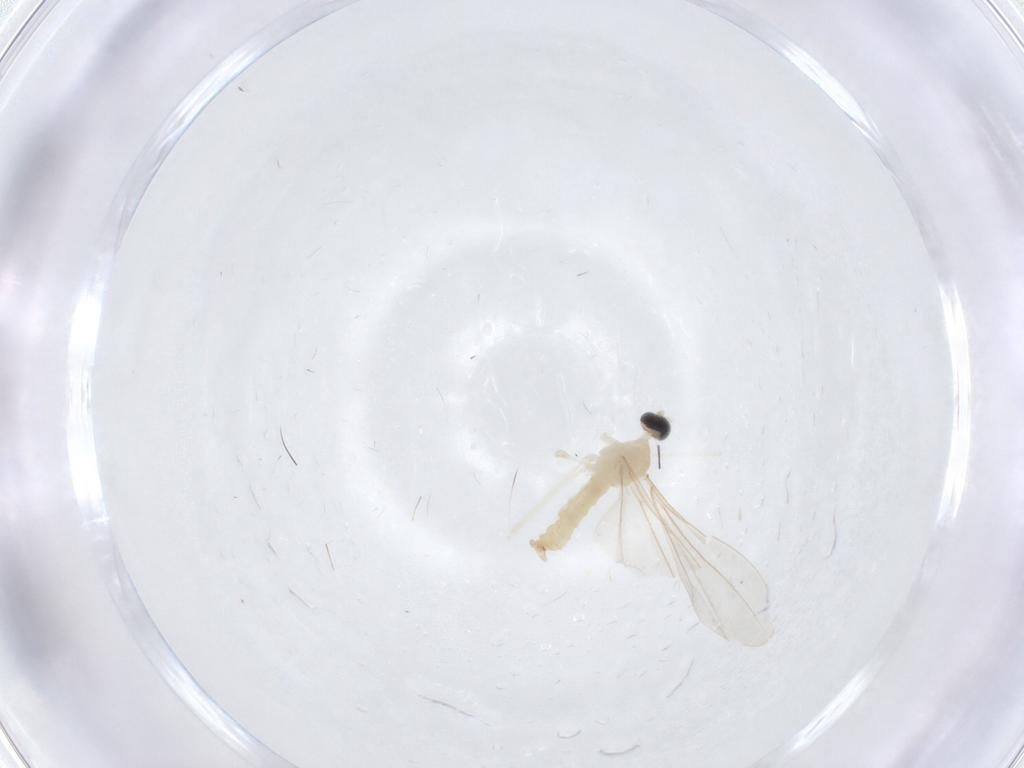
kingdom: Animalia
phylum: Arthropoda
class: Insecta
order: Diptera
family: Cecidomyiidae
